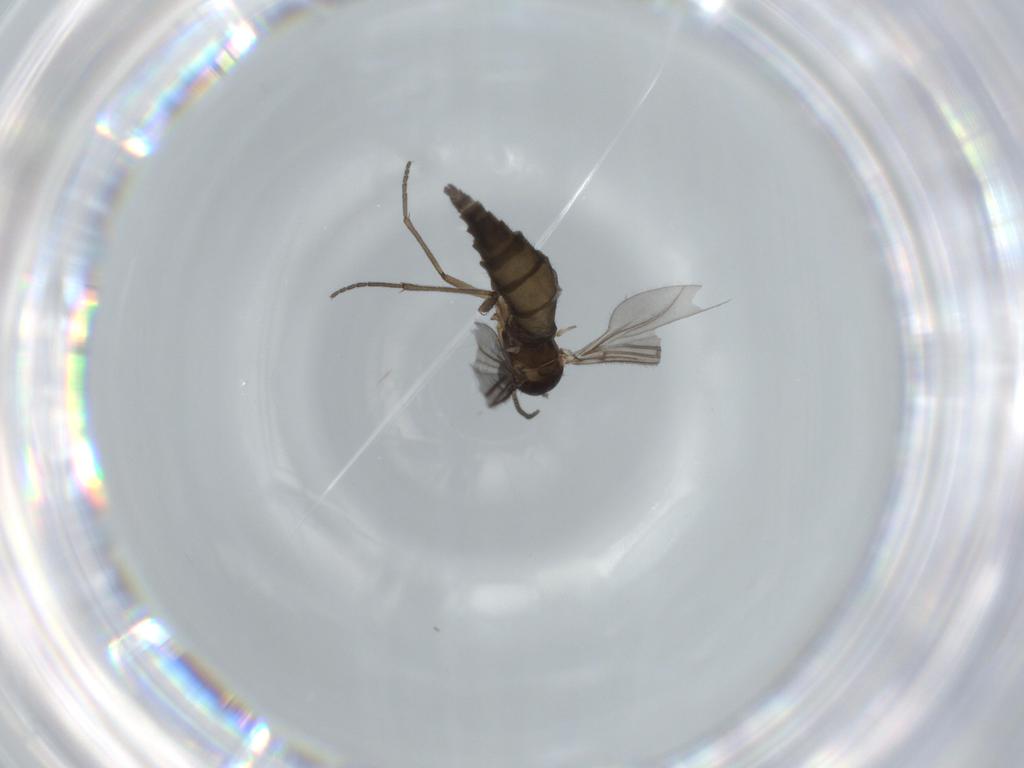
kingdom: Animalia
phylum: Arthropoda
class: Insecta
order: Diptera
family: Sciaridae
